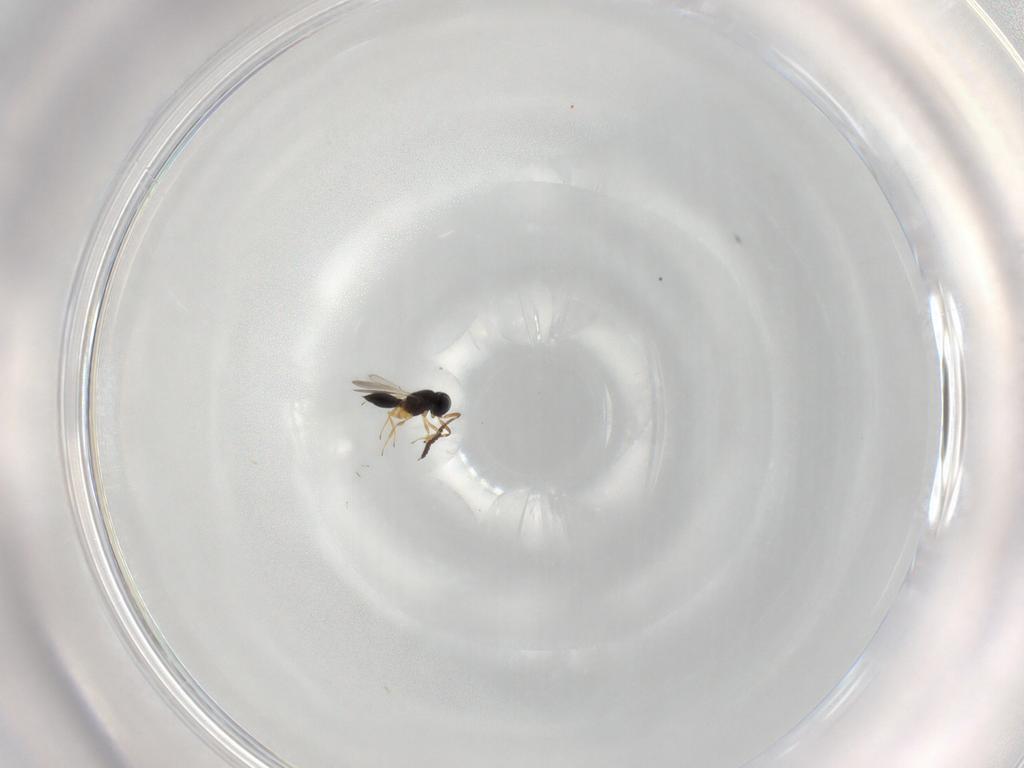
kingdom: Animalia
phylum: Arthropoda
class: Insecta
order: Hymenoptera
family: Scelionidae
